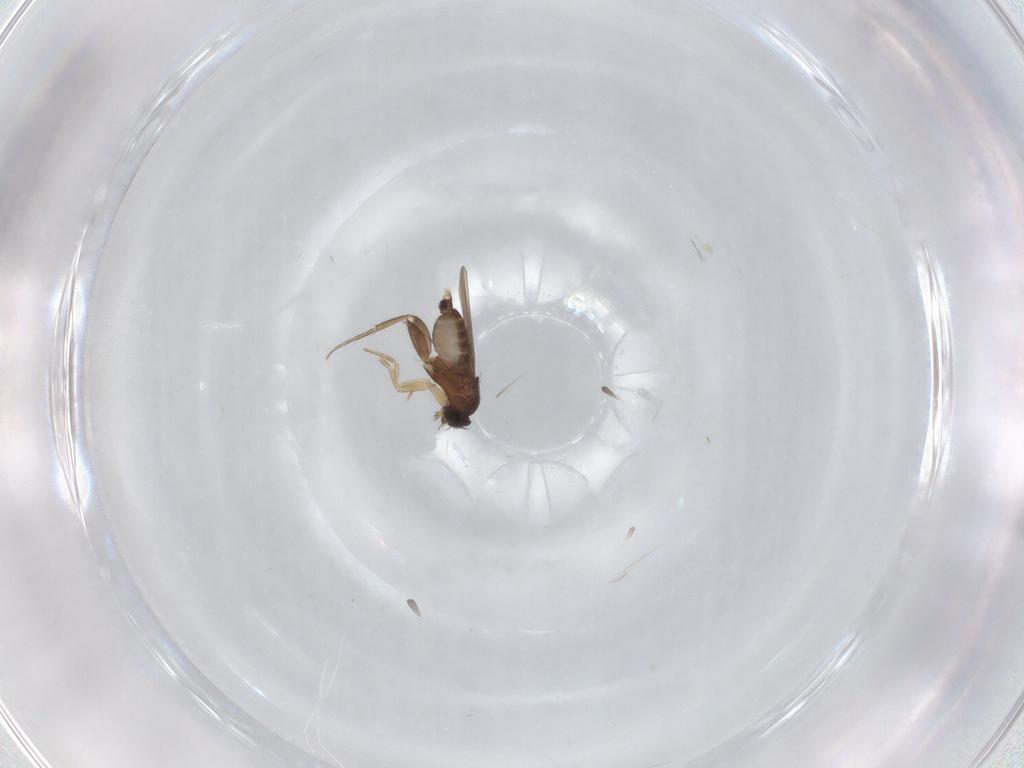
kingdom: Animalia
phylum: Arthropoda
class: Insecta
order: Diptera
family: Phoridae
